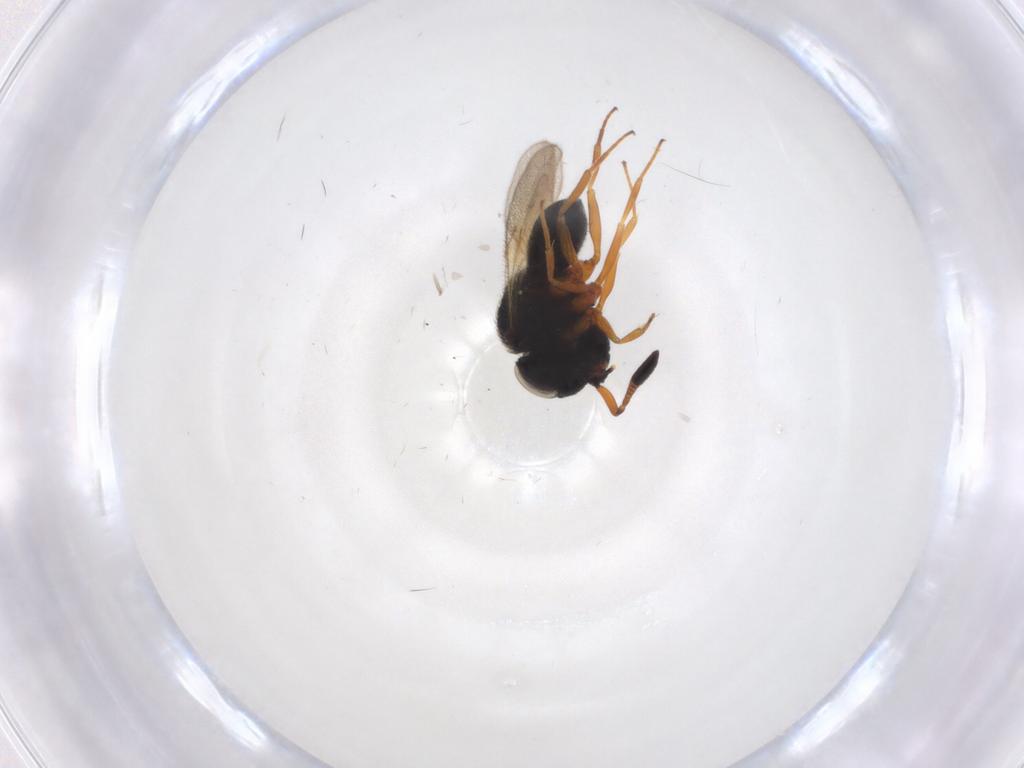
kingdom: Animalia
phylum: Arthropoda
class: Insecta
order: Hymenoptera
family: Scelionidae
